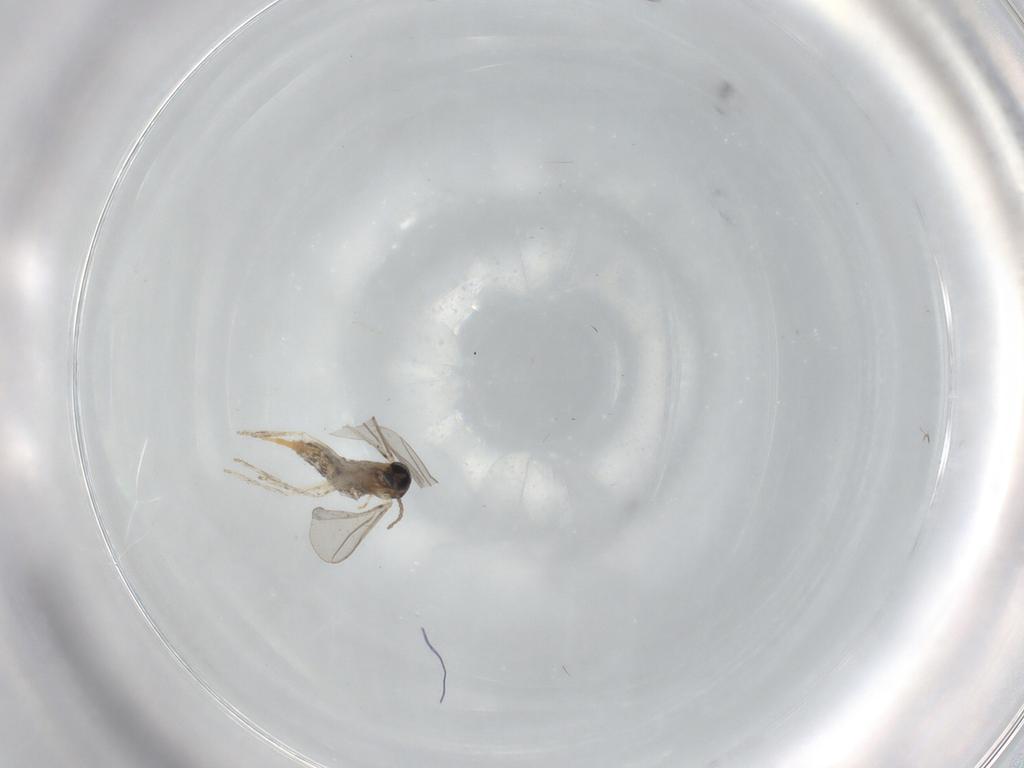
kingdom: Animalia
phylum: Arthropoda
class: Insecta
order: Diptera
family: Cecidomyiidae
